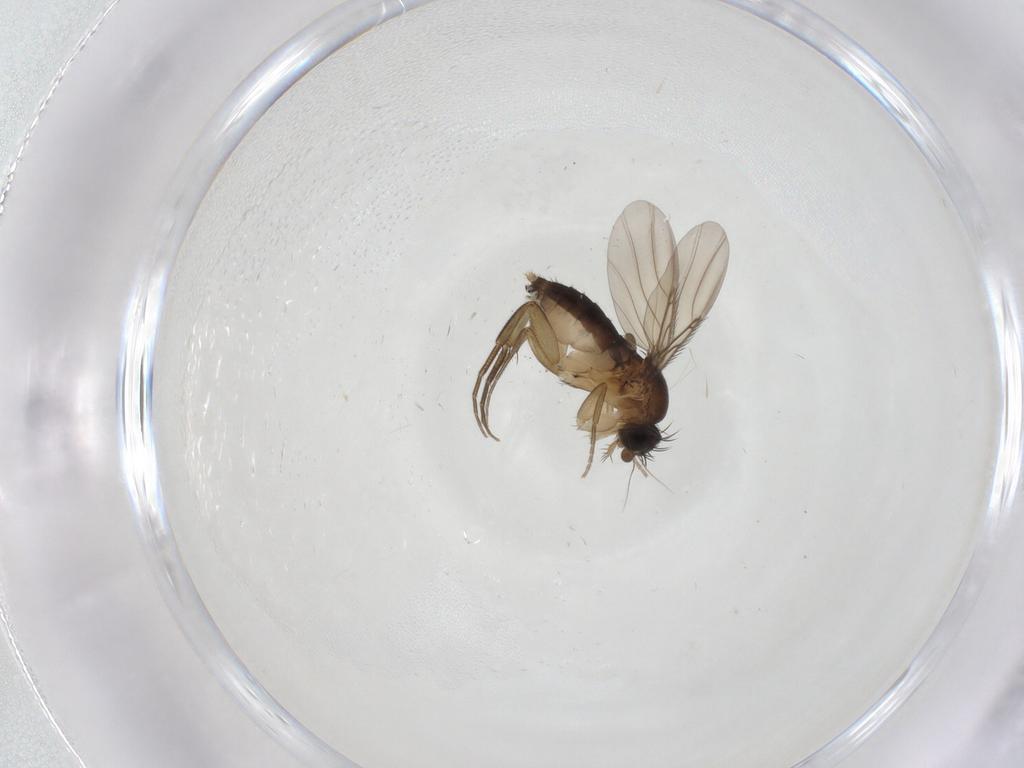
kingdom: Animalia
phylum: Arthropoda
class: Insecta
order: Diptera
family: Phoridae
